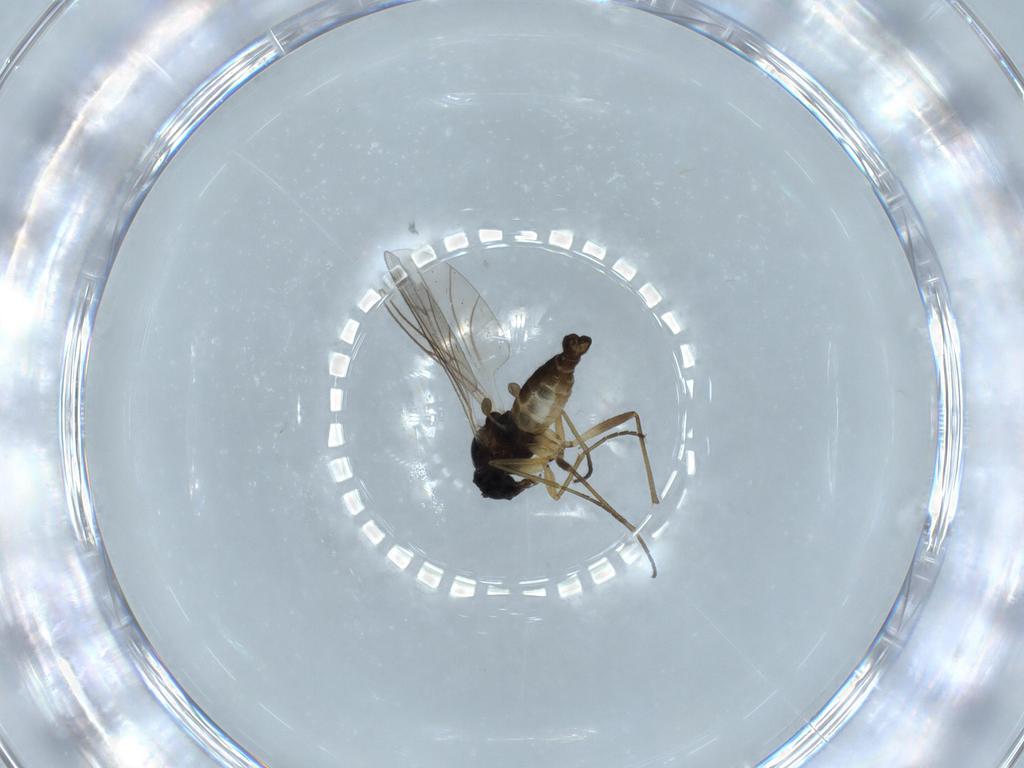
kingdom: Animalia
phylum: Arthropoda
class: Insecta
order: Diptera
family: Sciaridae
